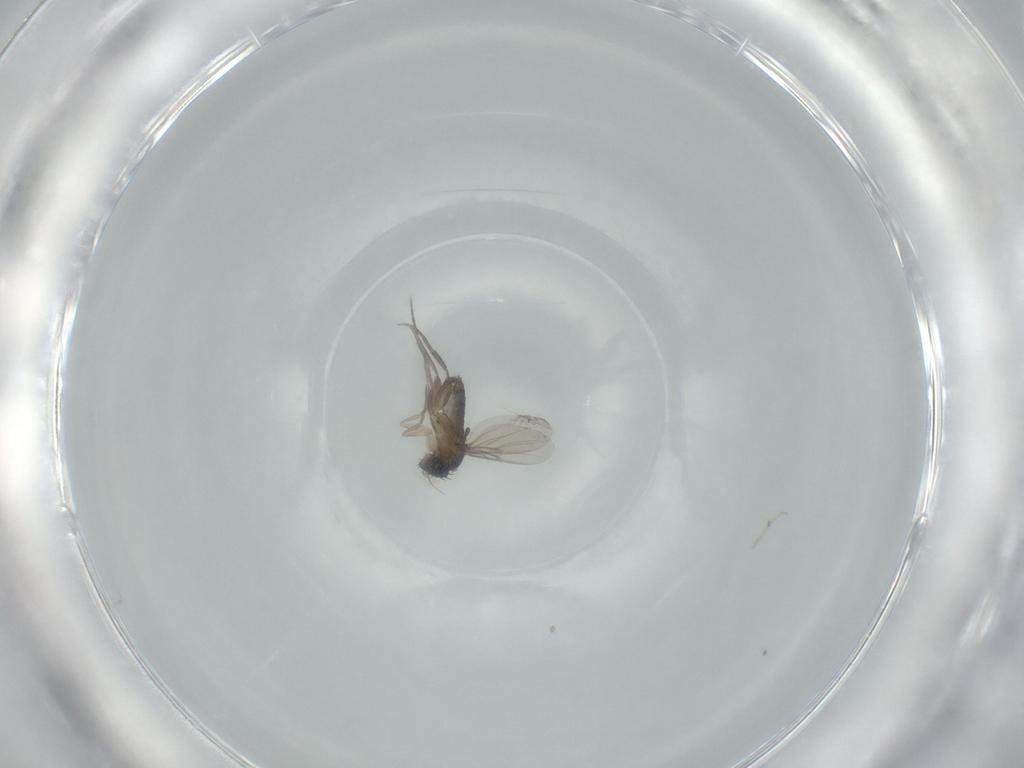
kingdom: Animalia
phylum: Arthropoda
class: Insecta
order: Diptera
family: Phoridae
